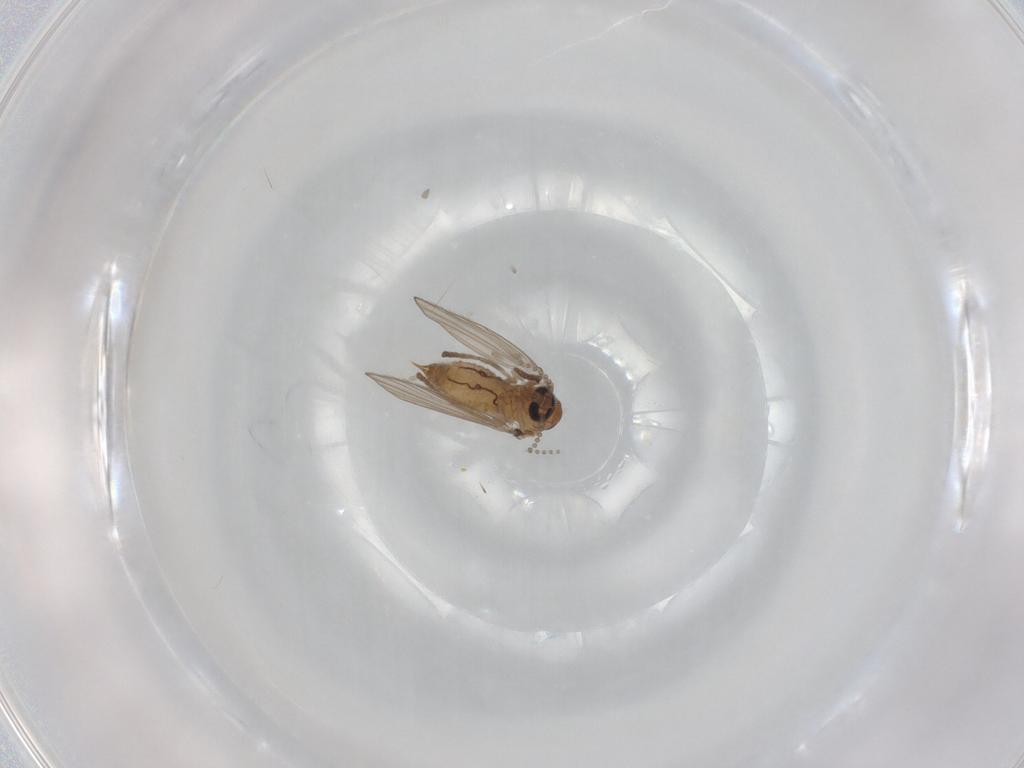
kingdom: Animalia
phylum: Arthropoda
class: Insecta
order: Diptera
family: Psychodidae
